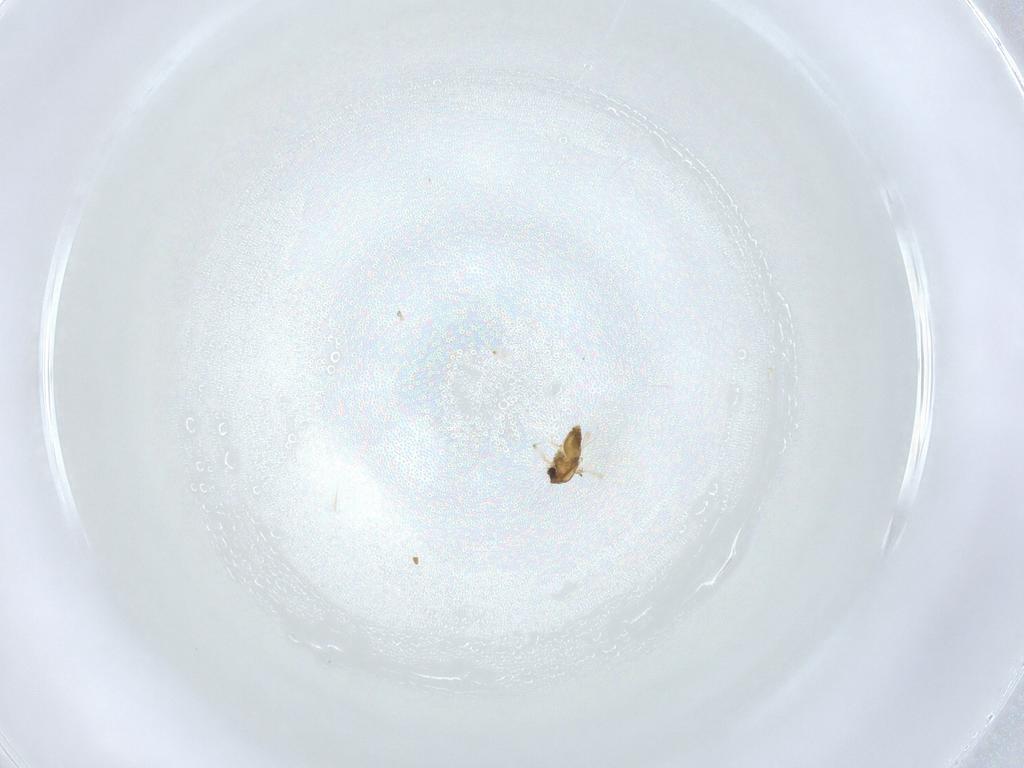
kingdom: Animalia
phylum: Arthropoda
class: Insecta
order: Diptera
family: Chironomidae
